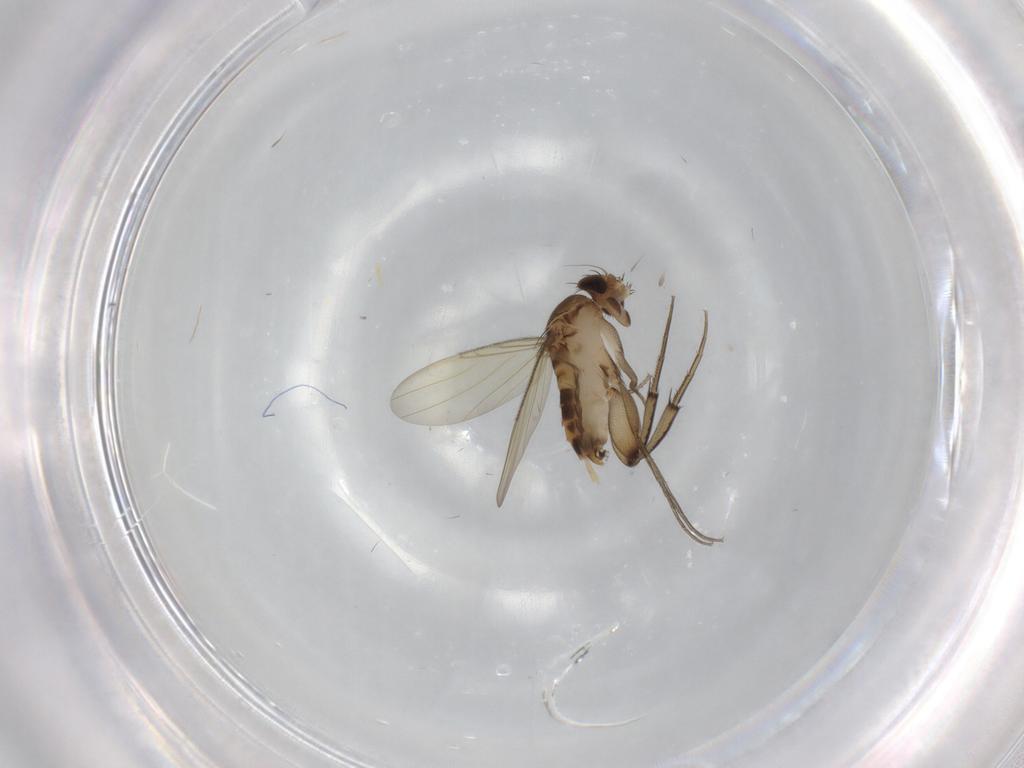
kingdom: Animalia
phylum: Arthropoda
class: Insecta
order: Diptera
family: Phoridae
